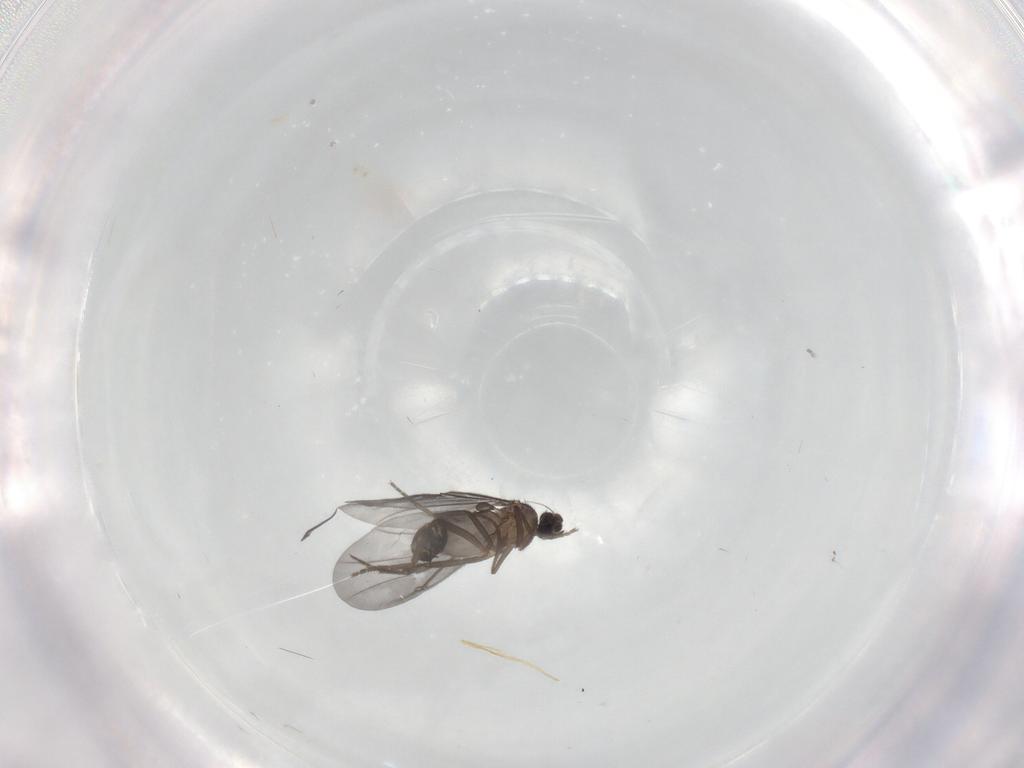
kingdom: Animalia
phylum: Arthropoda
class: Insecta
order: Diptera
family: Phoridae
